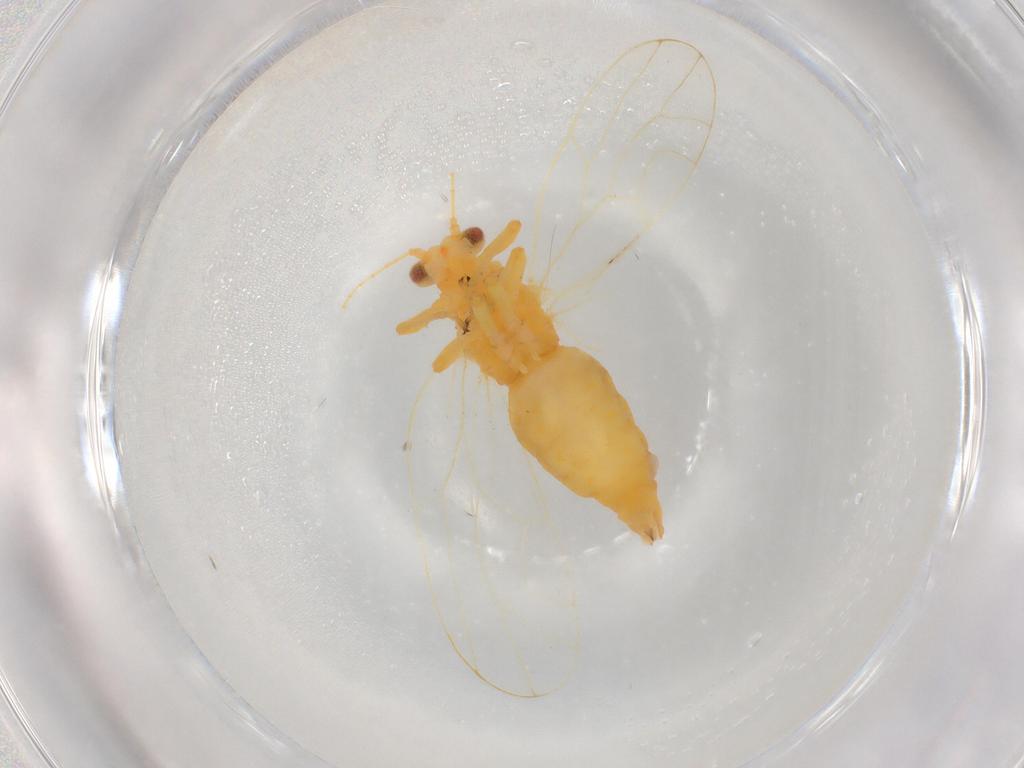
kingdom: Animalia
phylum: Arthropoda
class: Insecta
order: Hemiptera
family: Aphalaridae
